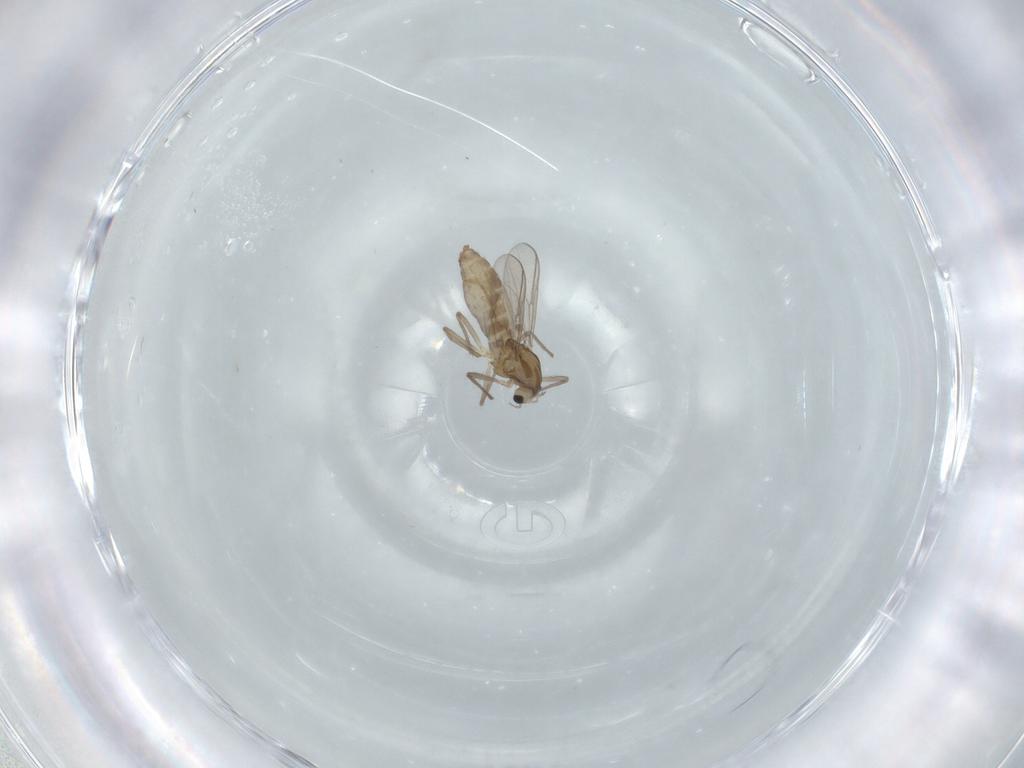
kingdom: Animalia
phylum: Arthropoda
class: Insecta
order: Diptera
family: Chironomidae
